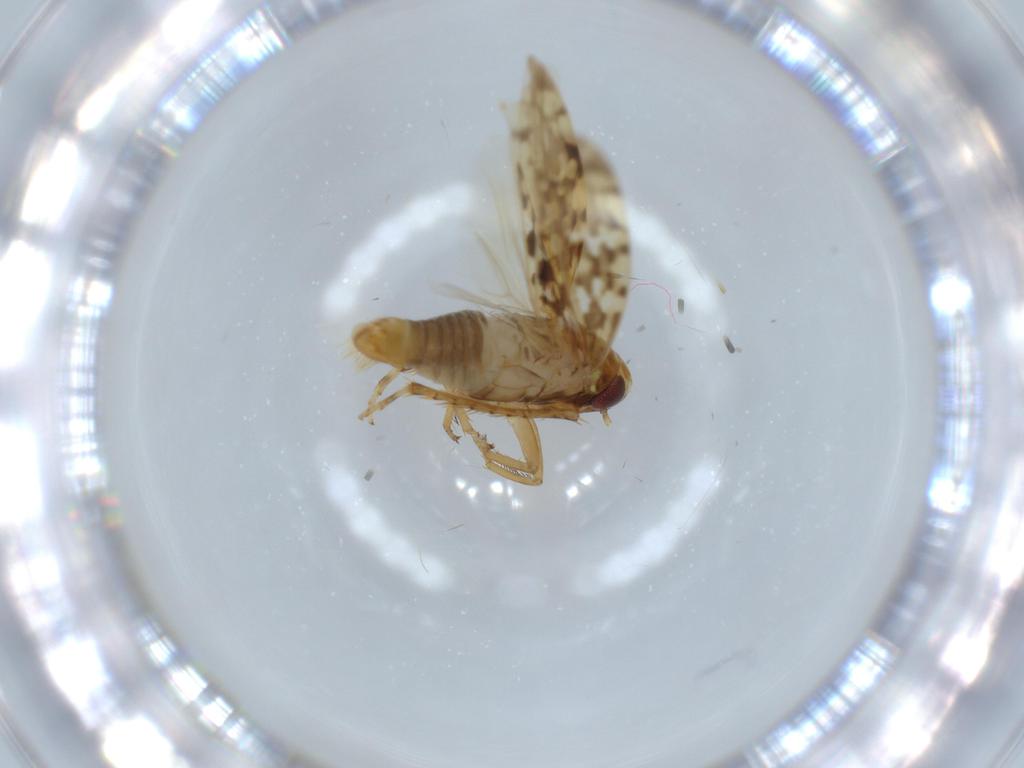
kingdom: Animalia
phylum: Arthropoda
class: Insecta
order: Hemiptera
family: Cicadellidae
